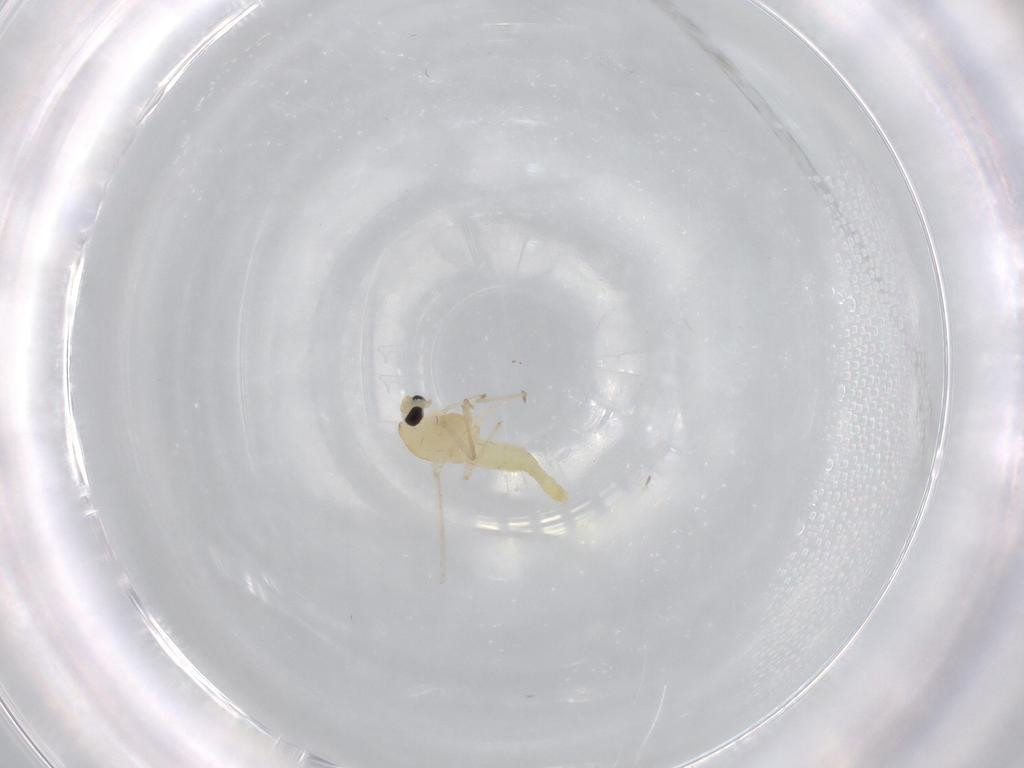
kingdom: Animalia
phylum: Arthropoda
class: Insecta
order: Diptera
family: Chironomidae
